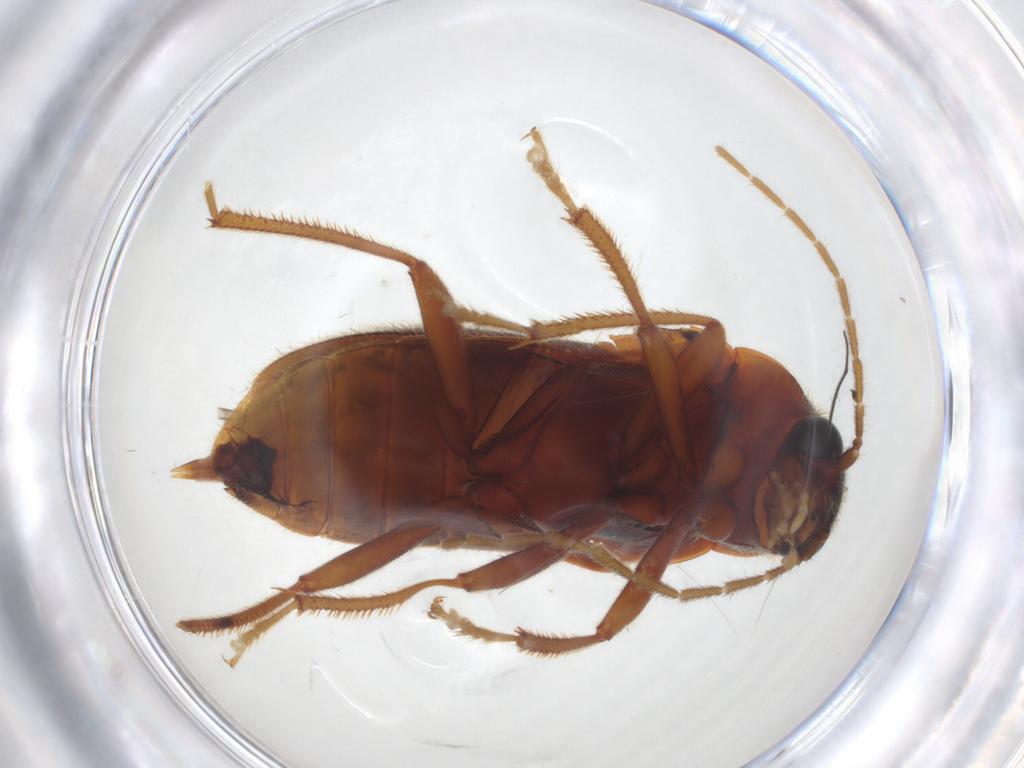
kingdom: Animalia
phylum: Arthropoda
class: Insecta
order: Coleoptera
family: Ptilodactylidae
